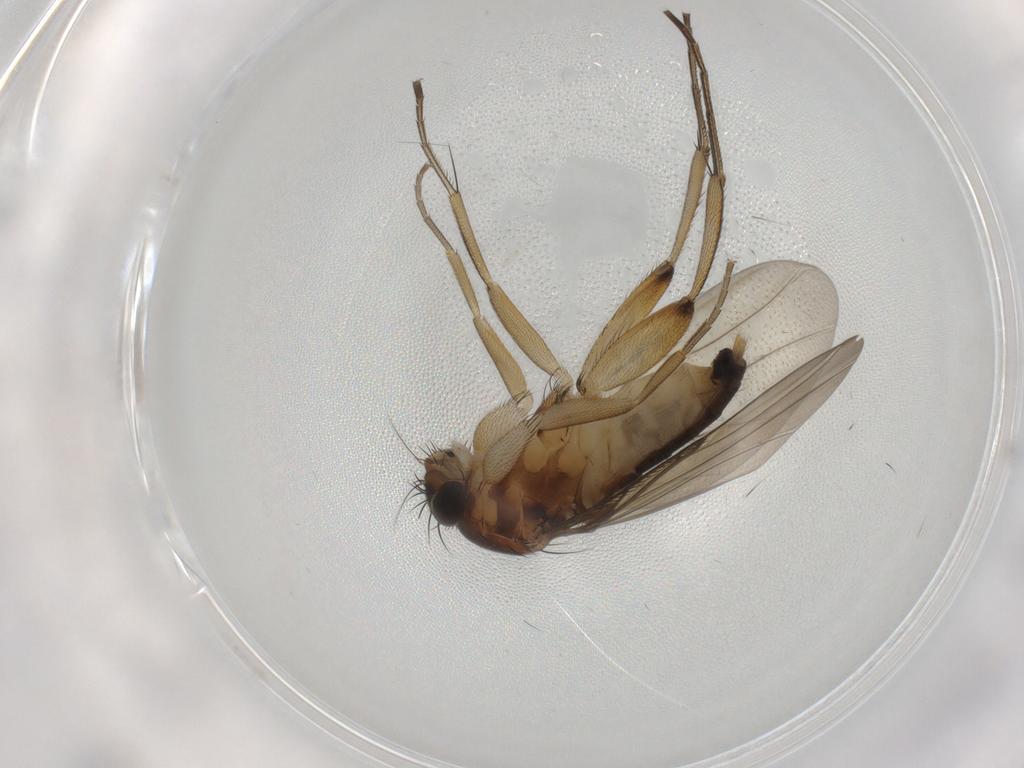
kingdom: Animalia
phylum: Arthropoda
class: Insecta
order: Diptera
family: Phoridae
